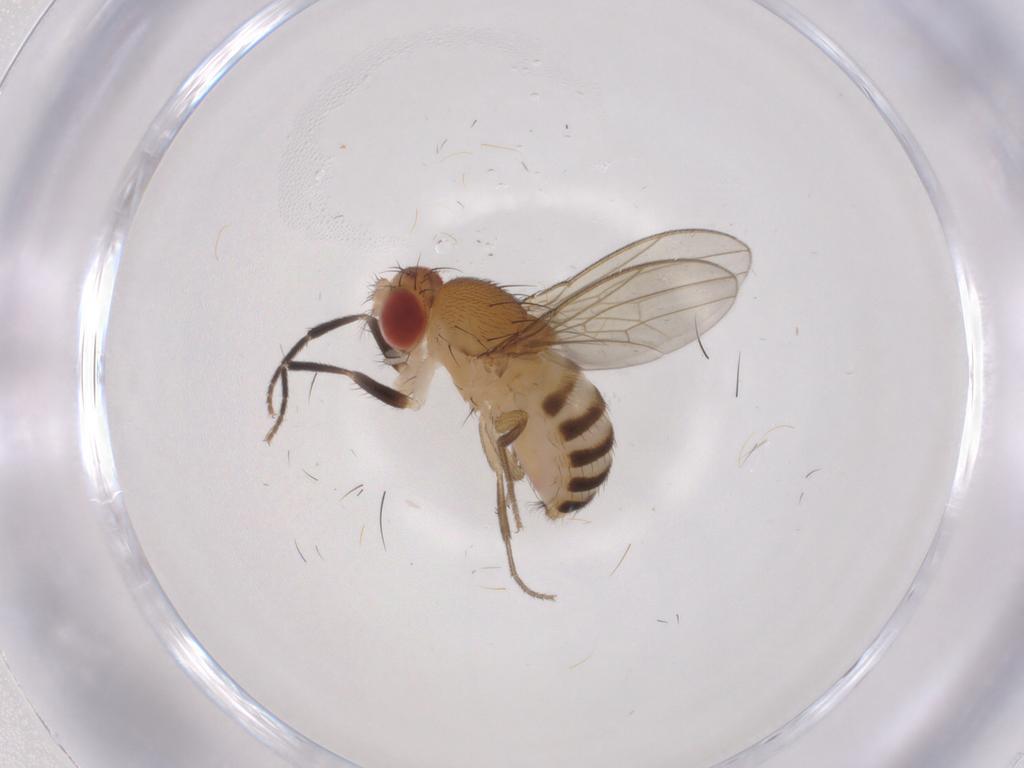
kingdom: Animalia
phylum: Arthropoda
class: Insecta
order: Diptera
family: Drosophilidae
